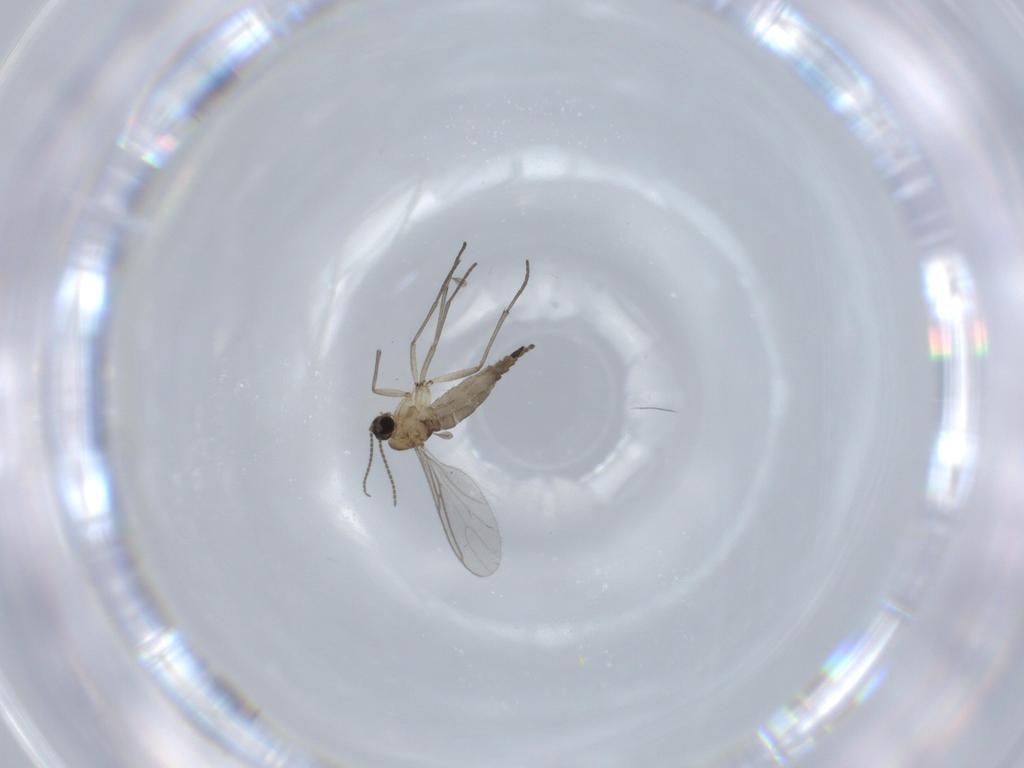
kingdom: Animalia
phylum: Arthropoda
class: Insecta
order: Diptera
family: Sciaridae
